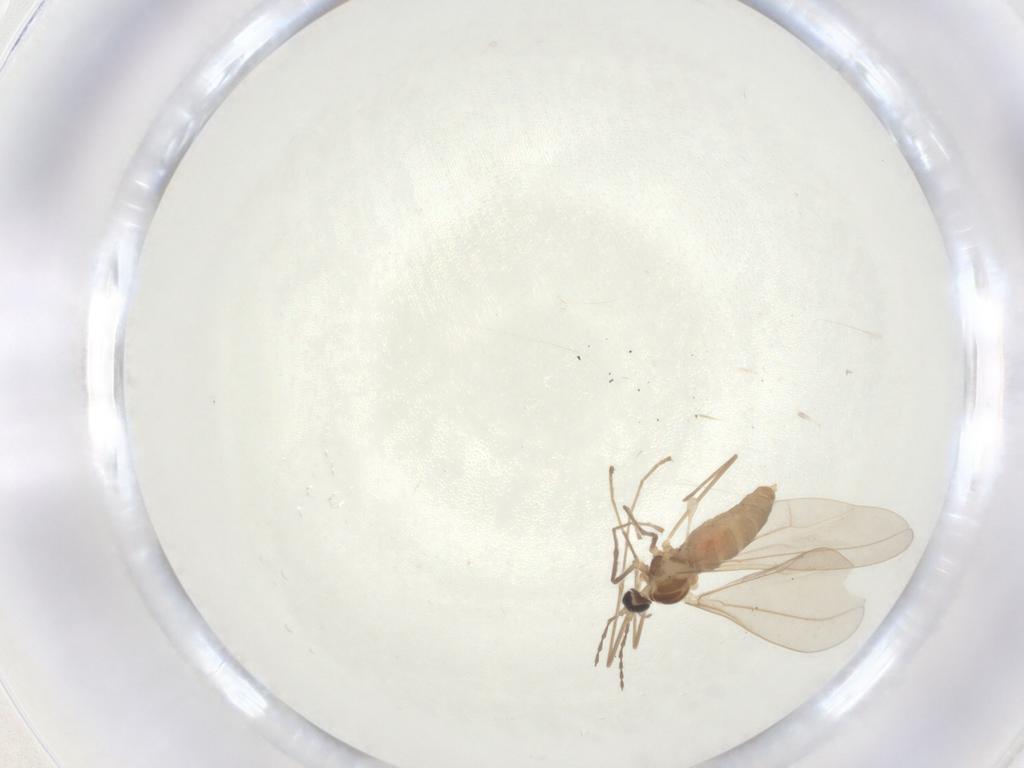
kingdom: Animalia
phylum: Arthropoda
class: Insecta
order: Diptera
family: Cecidomyiidae
